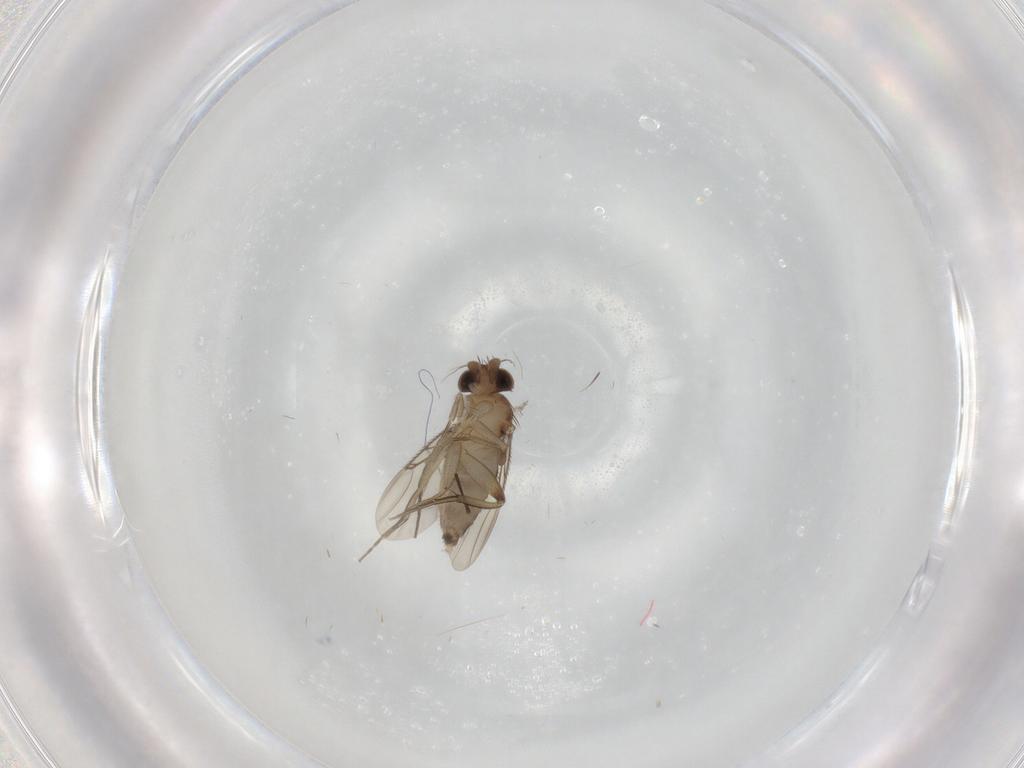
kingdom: Animalia
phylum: Arthropoda
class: Insecta
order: Diptera
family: Phoridae
